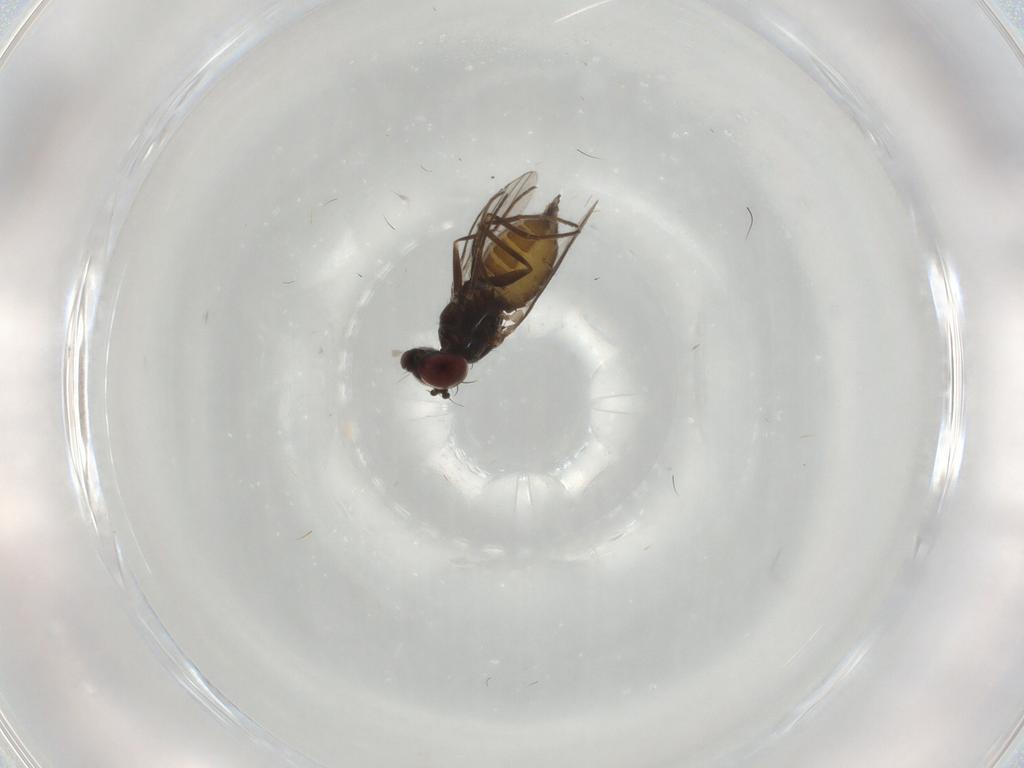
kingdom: Animalia
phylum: Arthropoda
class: Insecta
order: Diptera
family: Dolichopodidae
